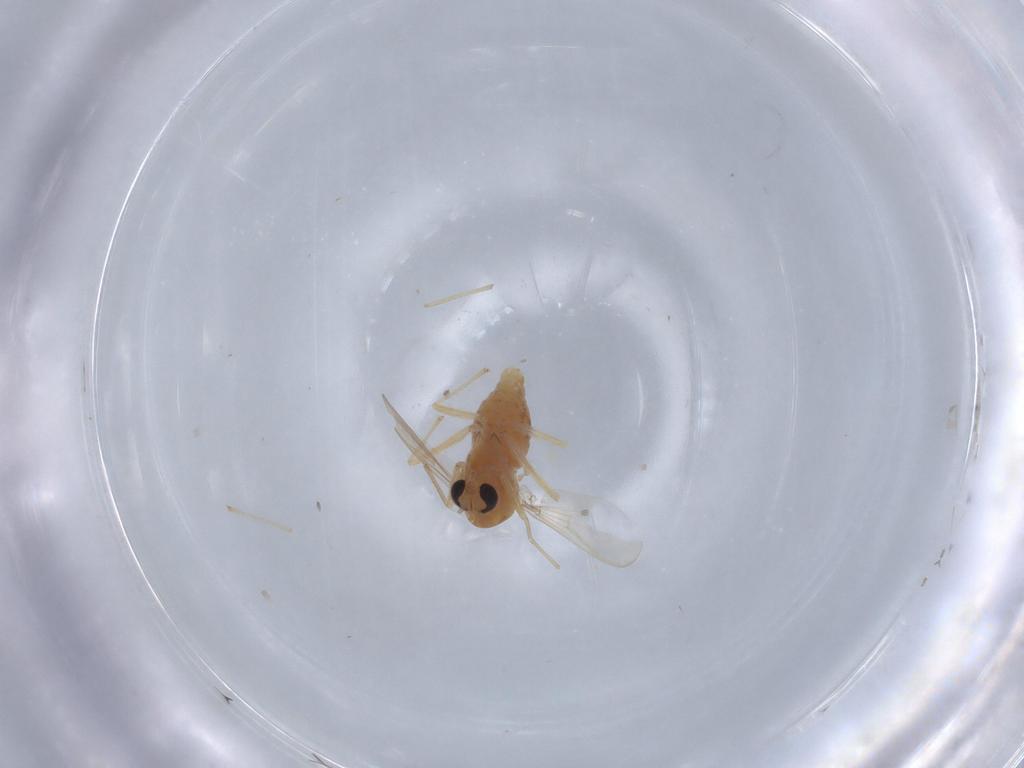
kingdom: Animalia
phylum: Arthropoda
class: Insecta
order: Diptera
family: Chironomidae
